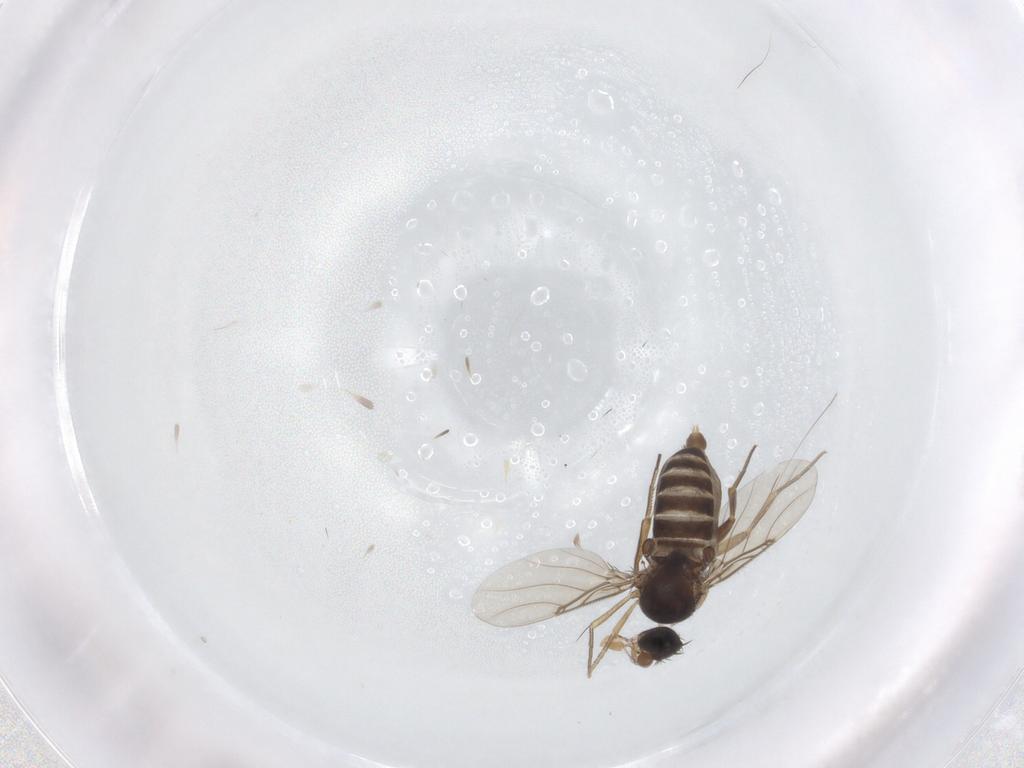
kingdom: Animalia
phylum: Arthropoda
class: Insecta
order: Diptera
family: Phoridae
